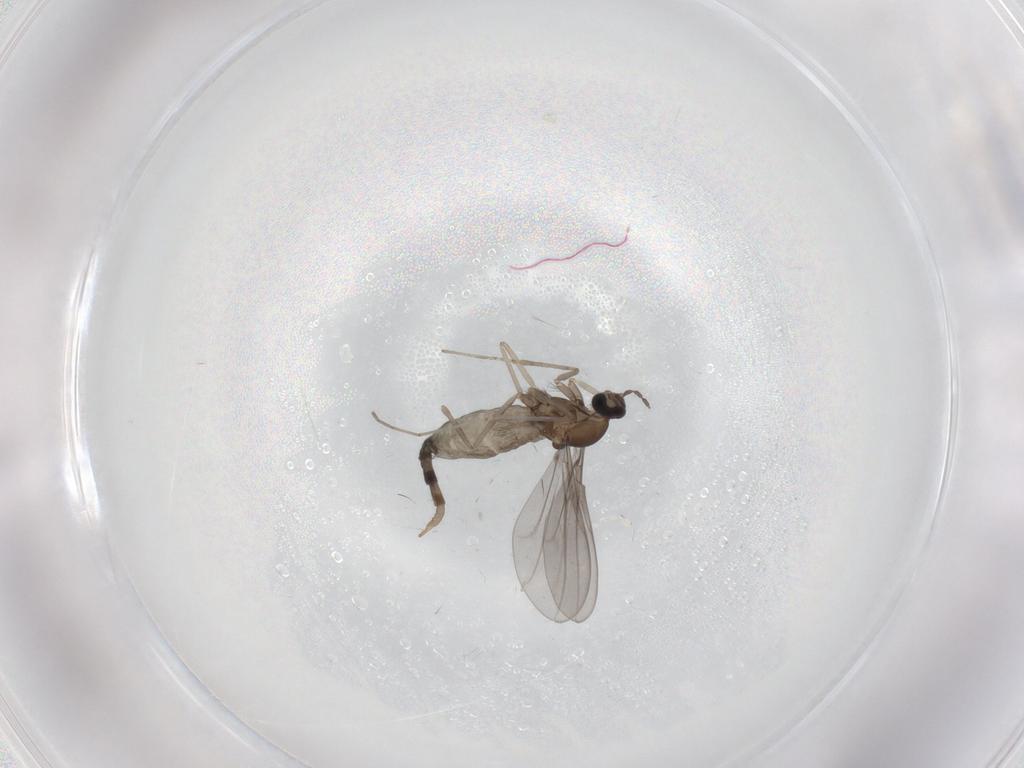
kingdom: Animalia
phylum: Arthropoda
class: Insecta
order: Diptera
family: Cecidomyiidae
